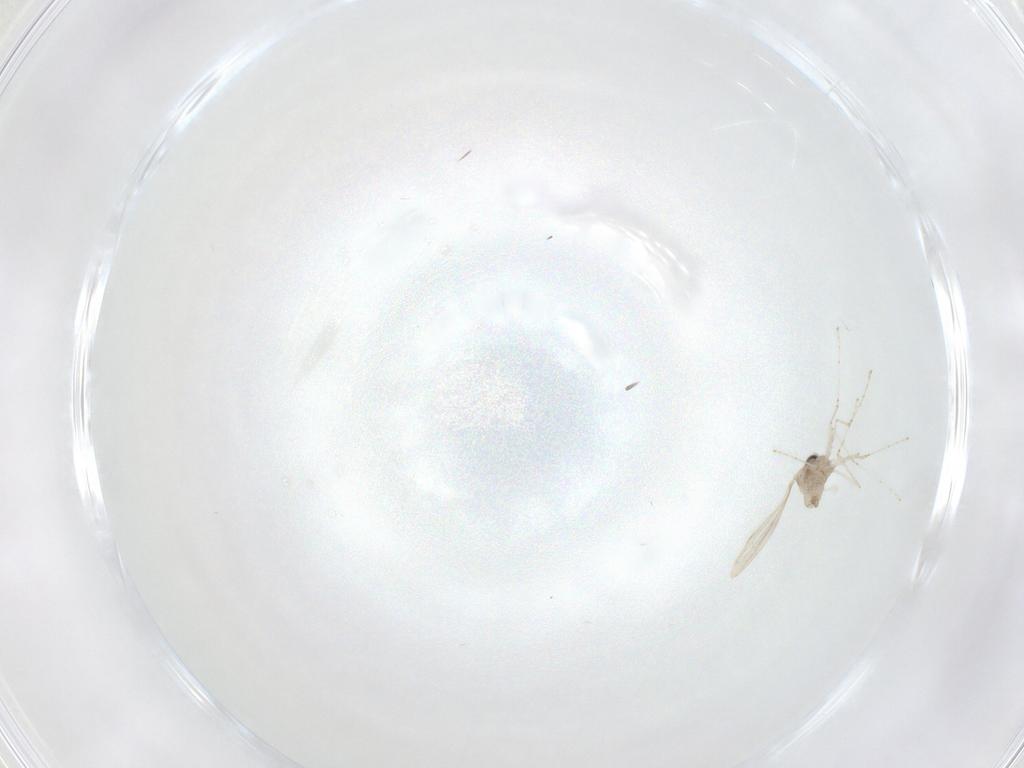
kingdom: Animalia
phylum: Arthropoda
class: Insecta
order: Diptera
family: Cecidomyiidae
